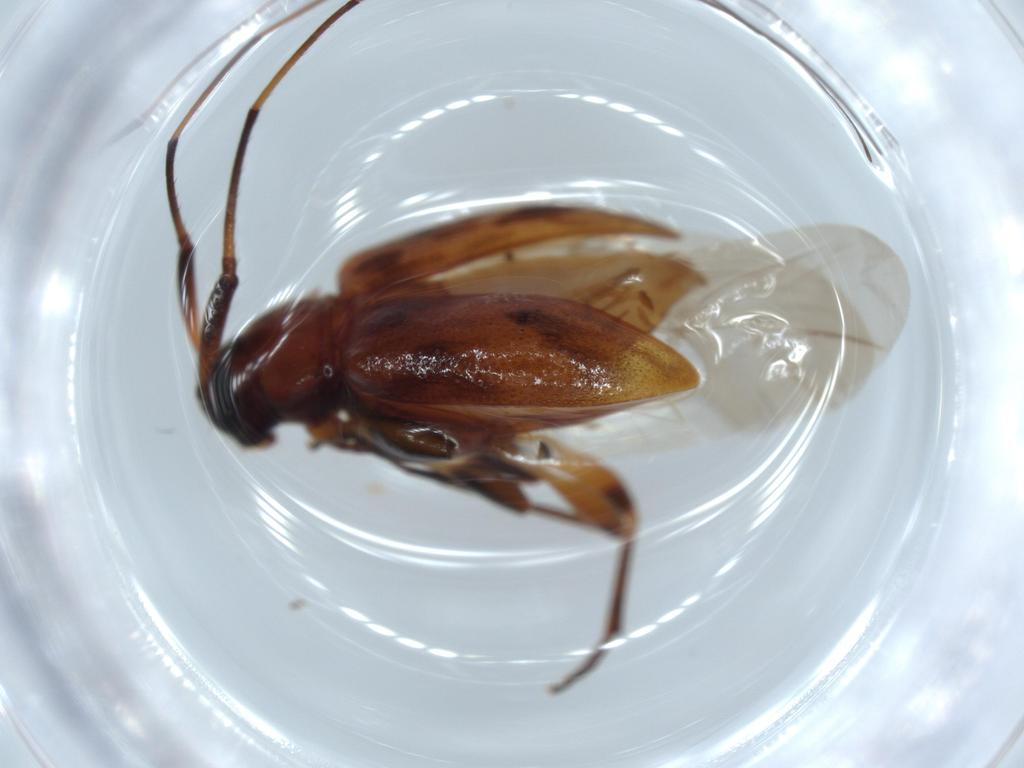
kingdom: Animalia
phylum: Arthropoda
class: Insecta
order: Coleoptera
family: Cerambycidae
